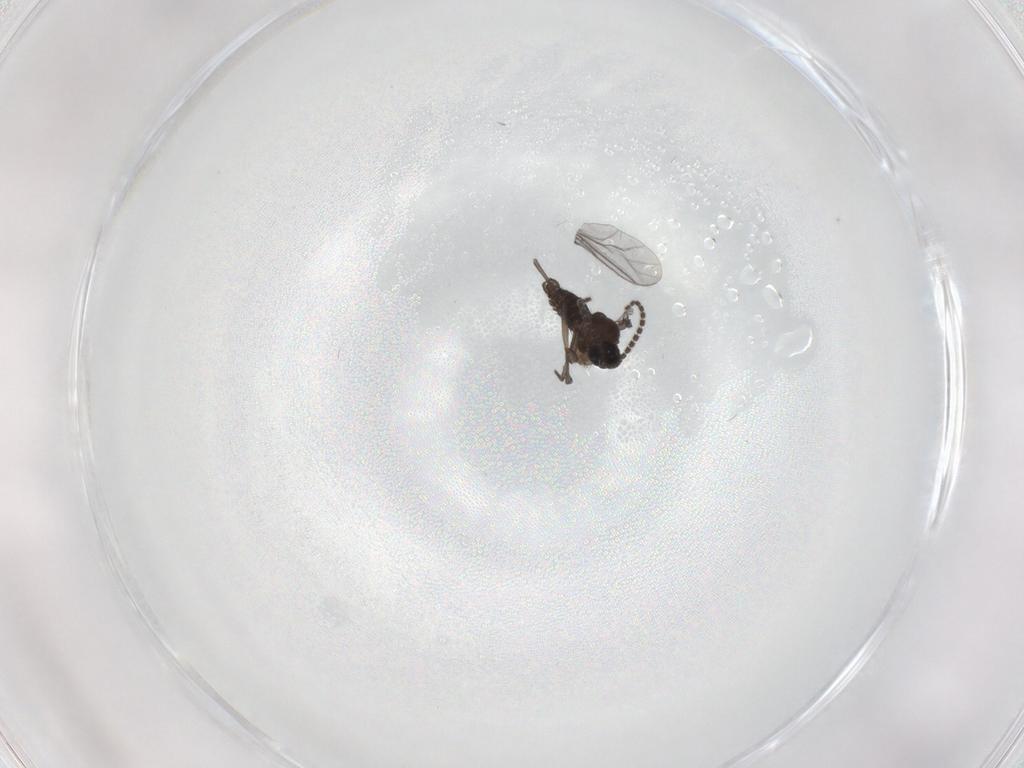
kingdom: Animalia
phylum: Arthropoda
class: Insecta
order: Diptera
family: Cecidomyiidae
